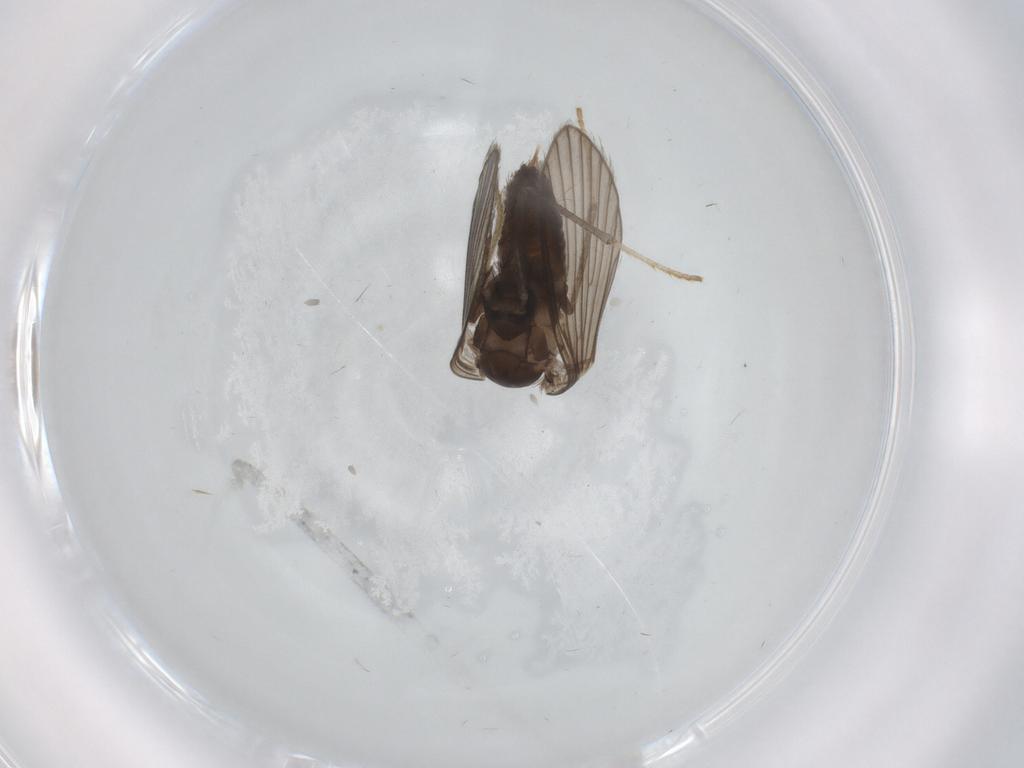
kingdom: Animalia
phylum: Arthropoda
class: Insecta
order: Diptera
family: Psychodidae
